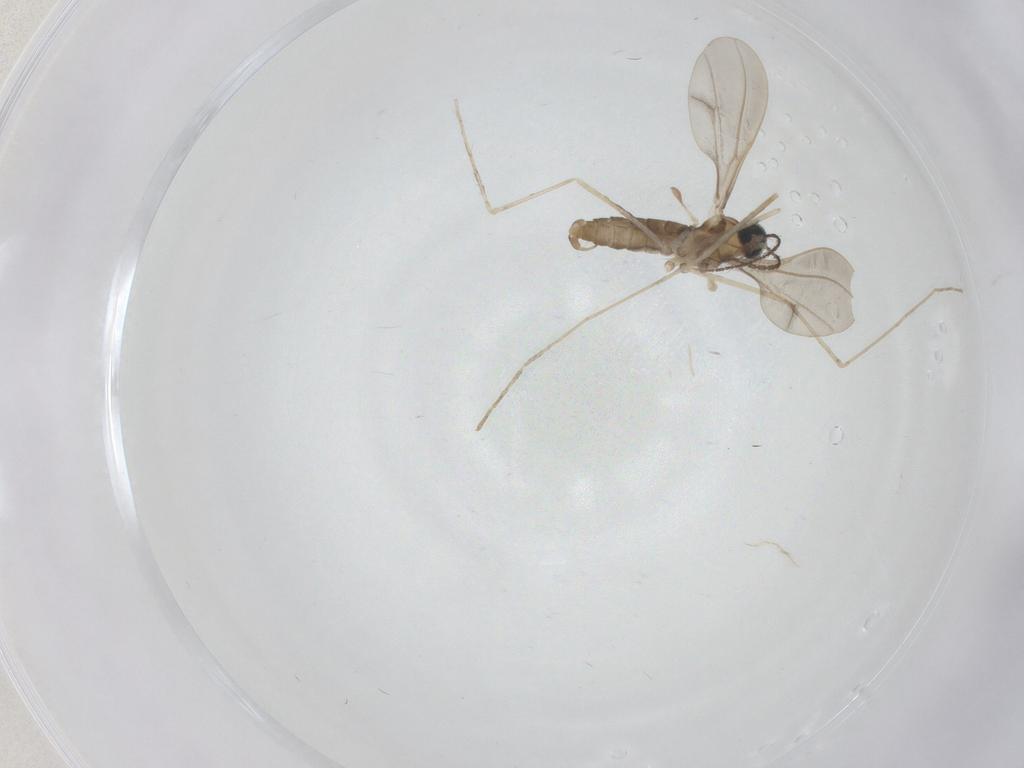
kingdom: Animalia
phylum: Arthropoda
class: Insecta
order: Diptera
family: Cecidomyiidae
